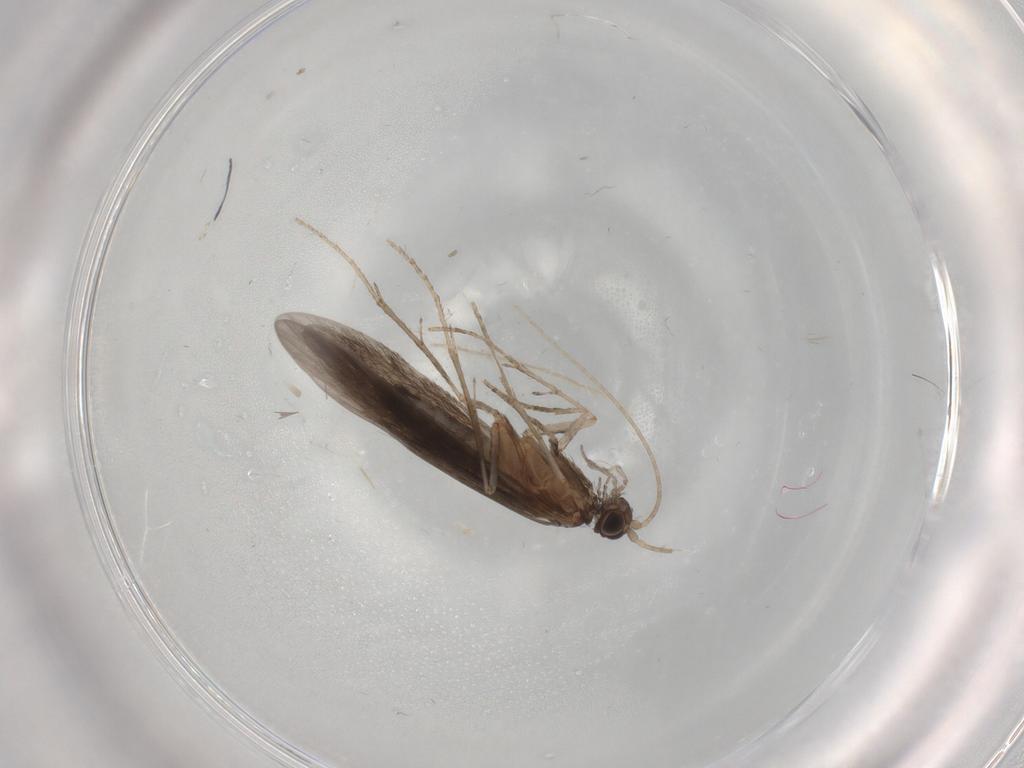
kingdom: Animalia
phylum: Arthropoda
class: Insecta
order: Trichoptera
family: Xiphocentronidae
